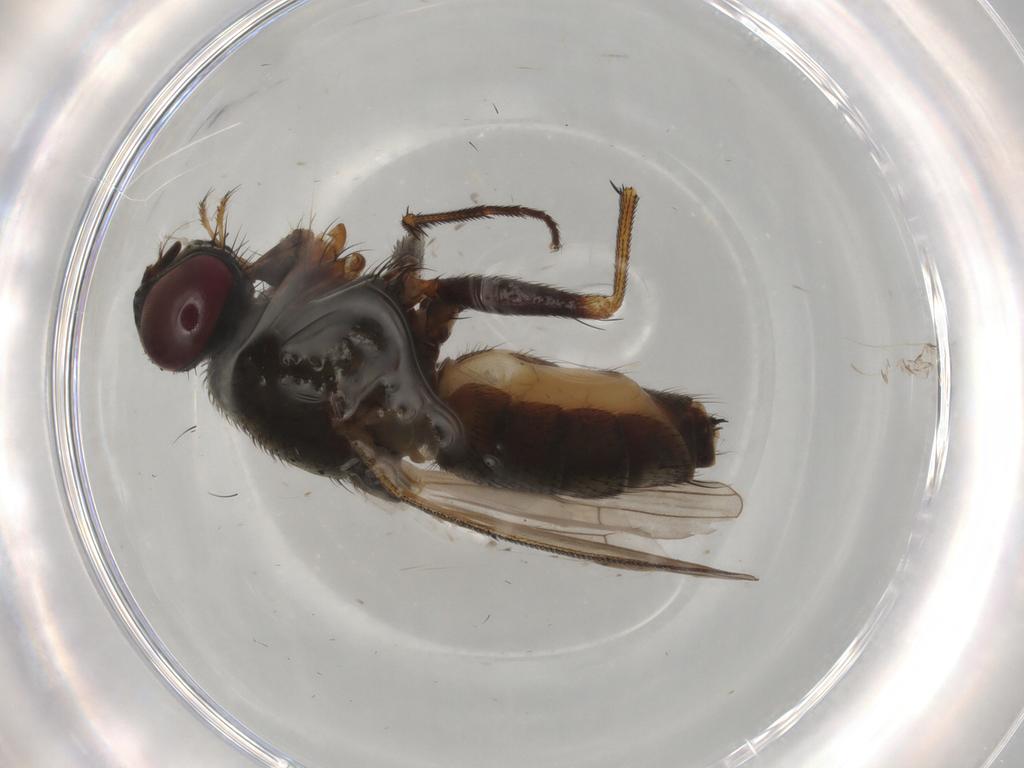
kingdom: Animalia
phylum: Arthropoda
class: Insecta
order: Diptera
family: Muscidae
